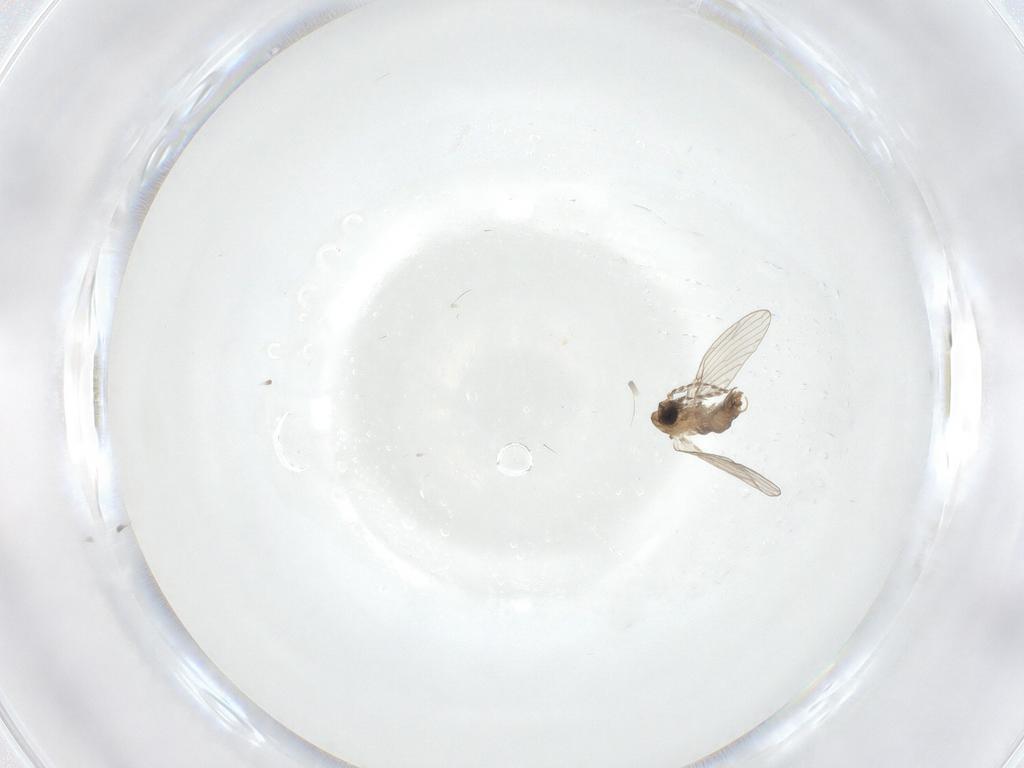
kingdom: Animalia
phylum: Arthropoda
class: Insecta
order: Diptera
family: Psychodidae
